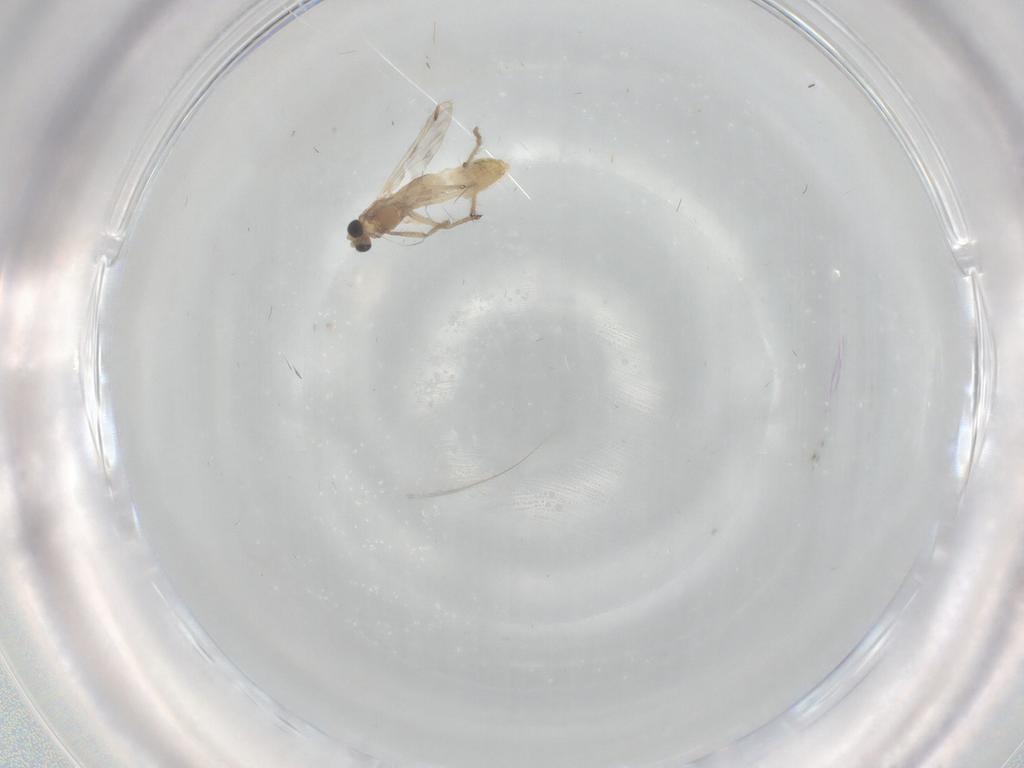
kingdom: Animalia
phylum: Arthropoda
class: Insecta
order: Diptera
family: Chironomidae
